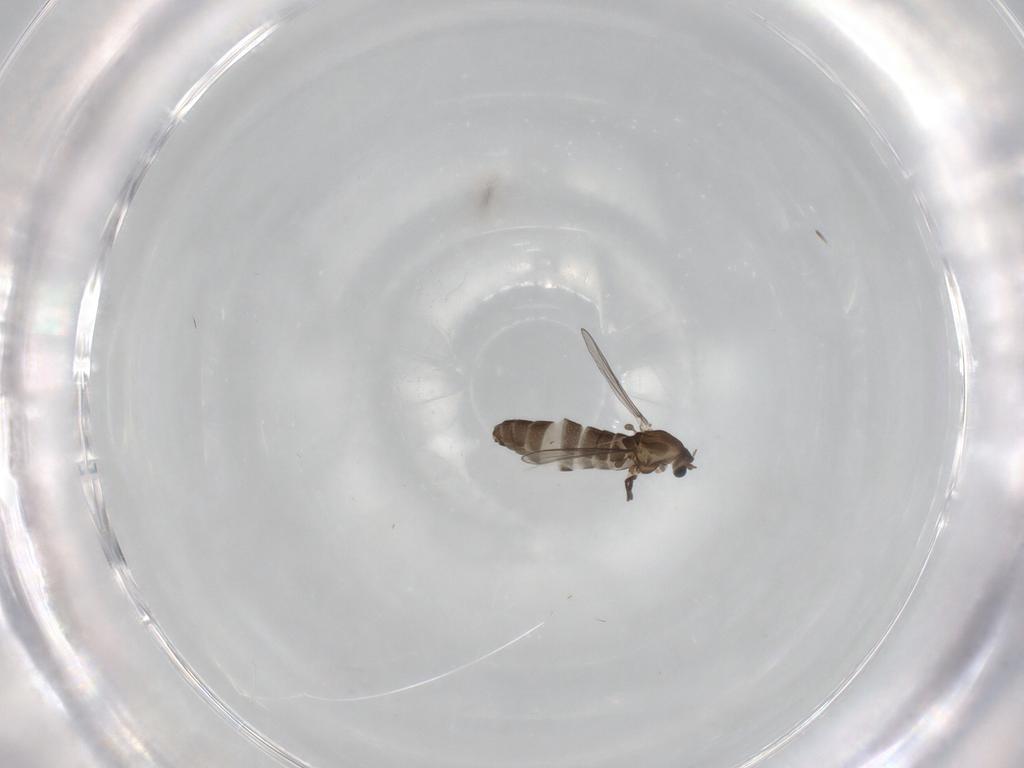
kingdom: Animalia
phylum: Arthropoda
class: Insecta
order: Diptera
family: Chironomidae
